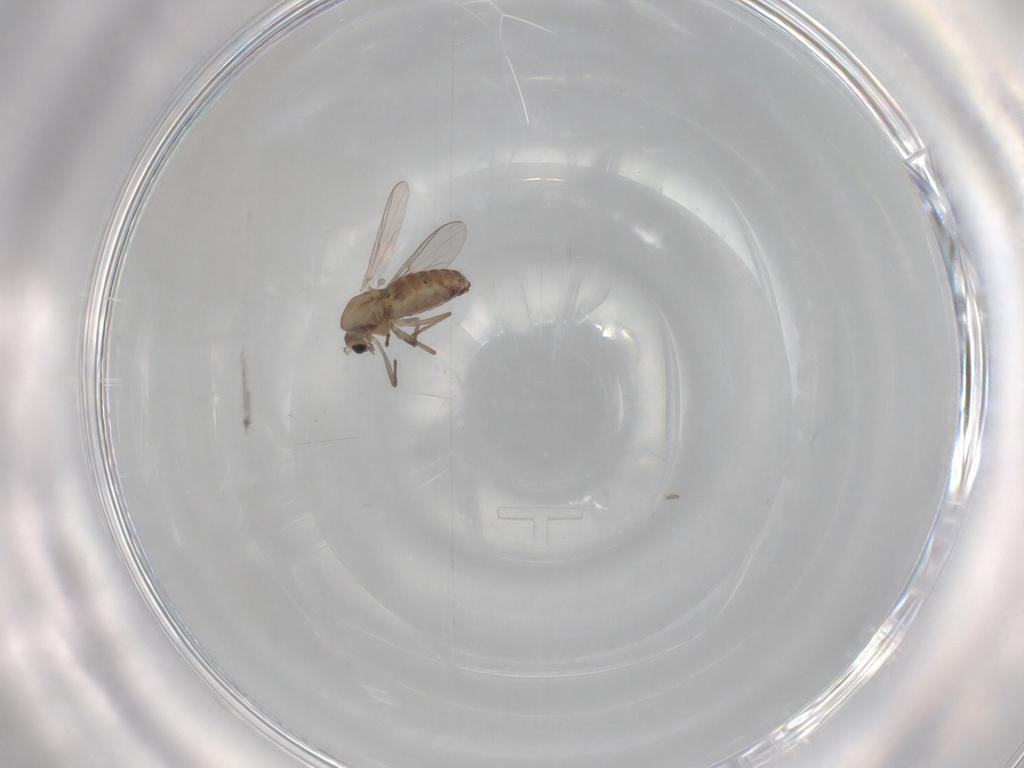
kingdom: Animalia
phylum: Arthropoda
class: Insecta
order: Diptera
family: Chironomidae
